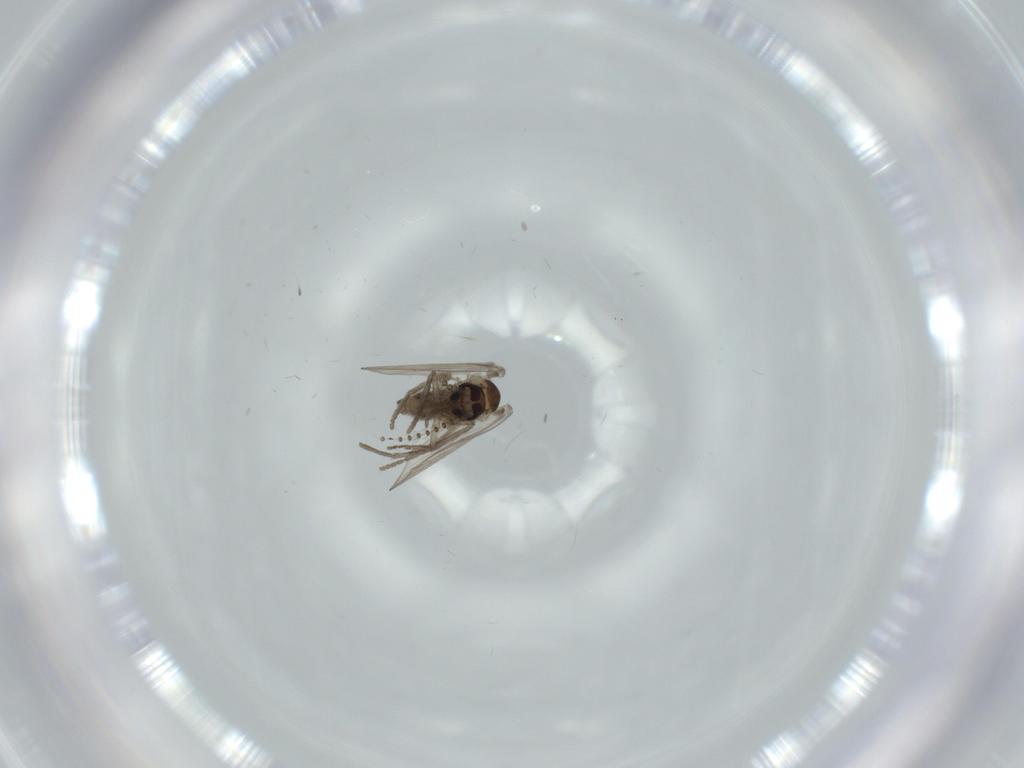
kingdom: Animalia
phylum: Arthropoda
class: Insecta
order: Diptera
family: Psychodidae
